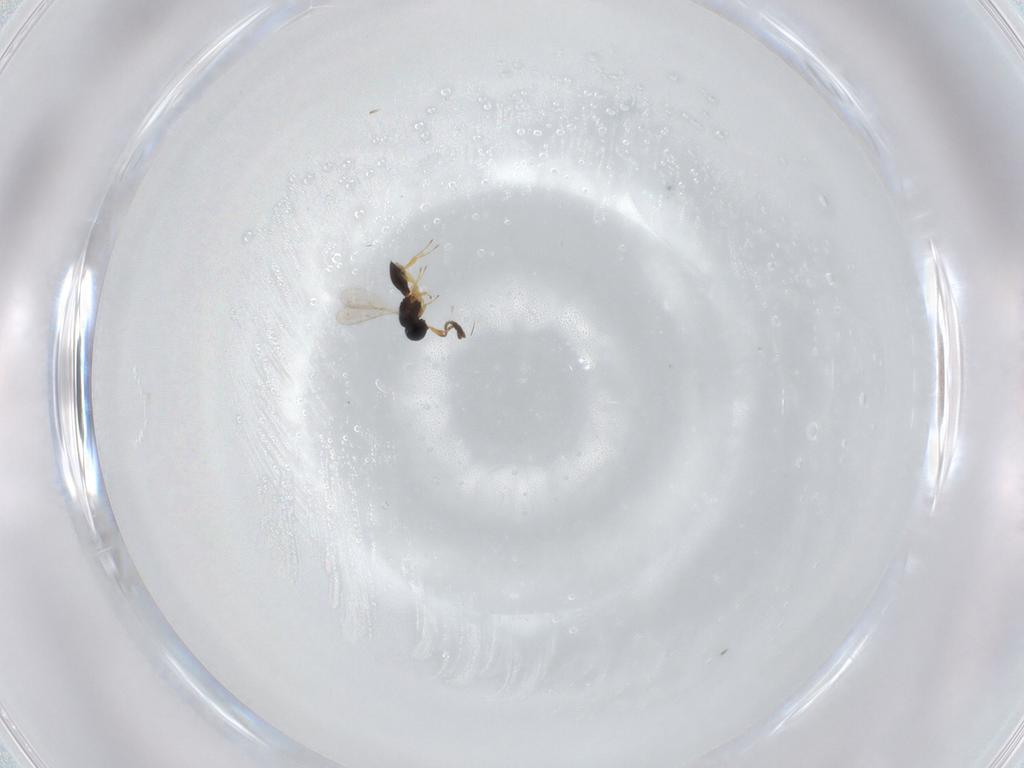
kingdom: Animalia
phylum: Arthropoda
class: Insecta
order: Hymenoptera
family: Scelionidae
